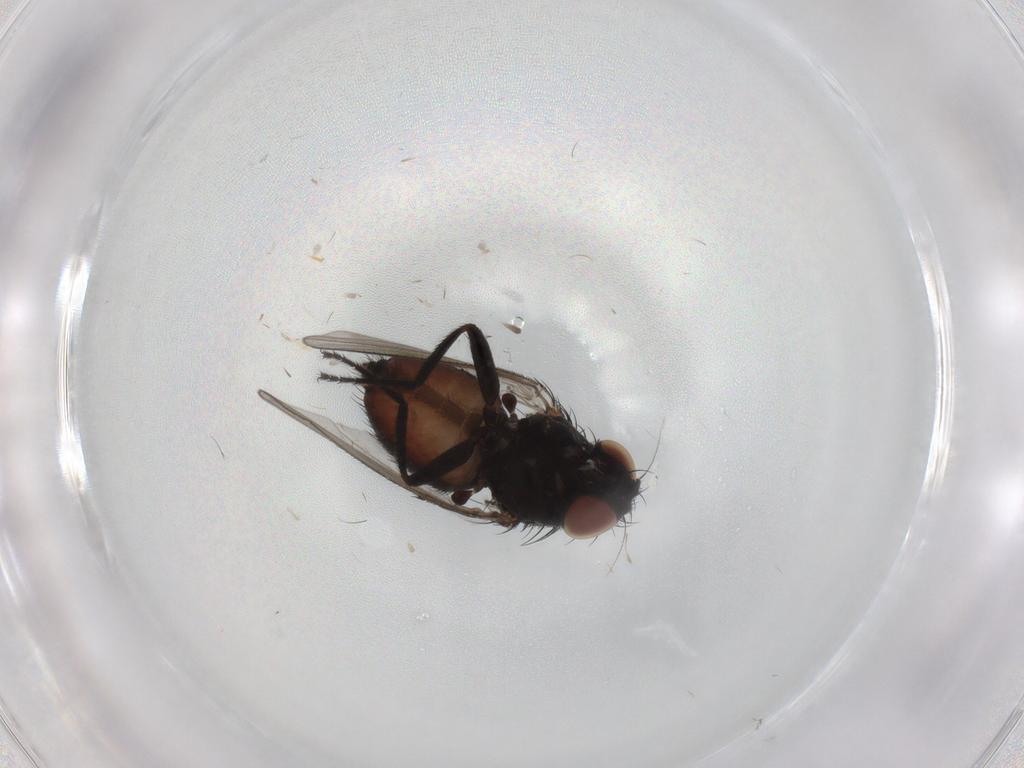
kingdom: Animalia
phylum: Arthropoda
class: Insecta
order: Diptera
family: Milichiidae
